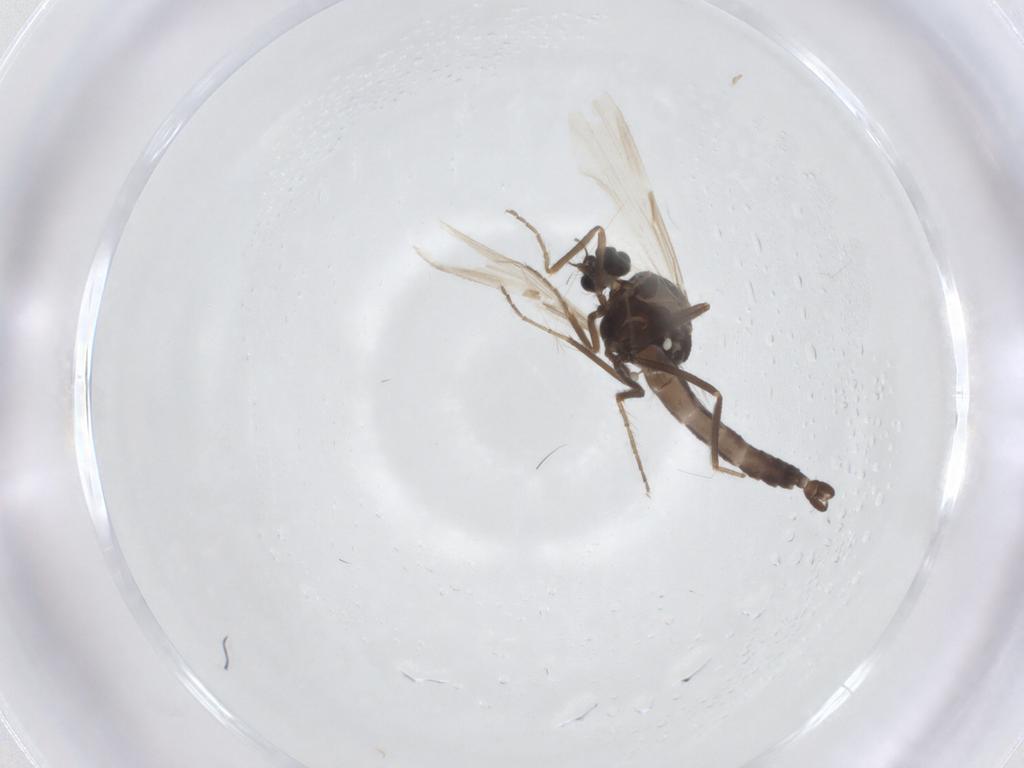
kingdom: Animalia
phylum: Arthropoda
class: Insecta
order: Diptera
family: Ceratopogonidae
